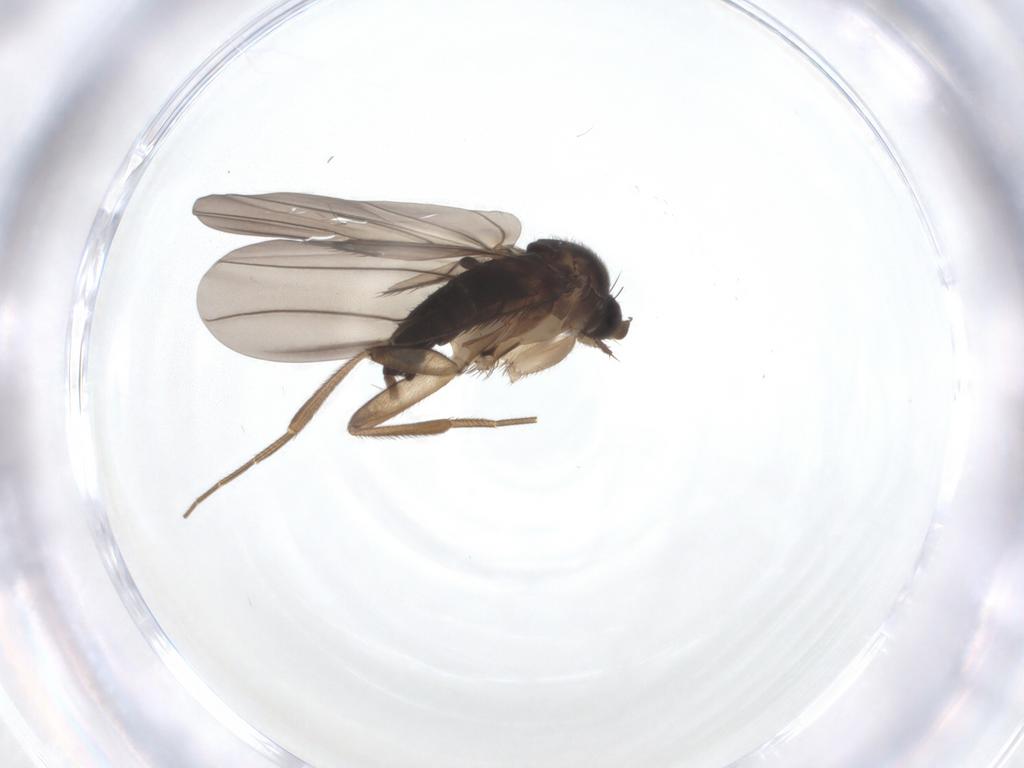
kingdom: Animalia
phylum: Arthropoda
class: Insecta
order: Diptera
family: Phoridae
